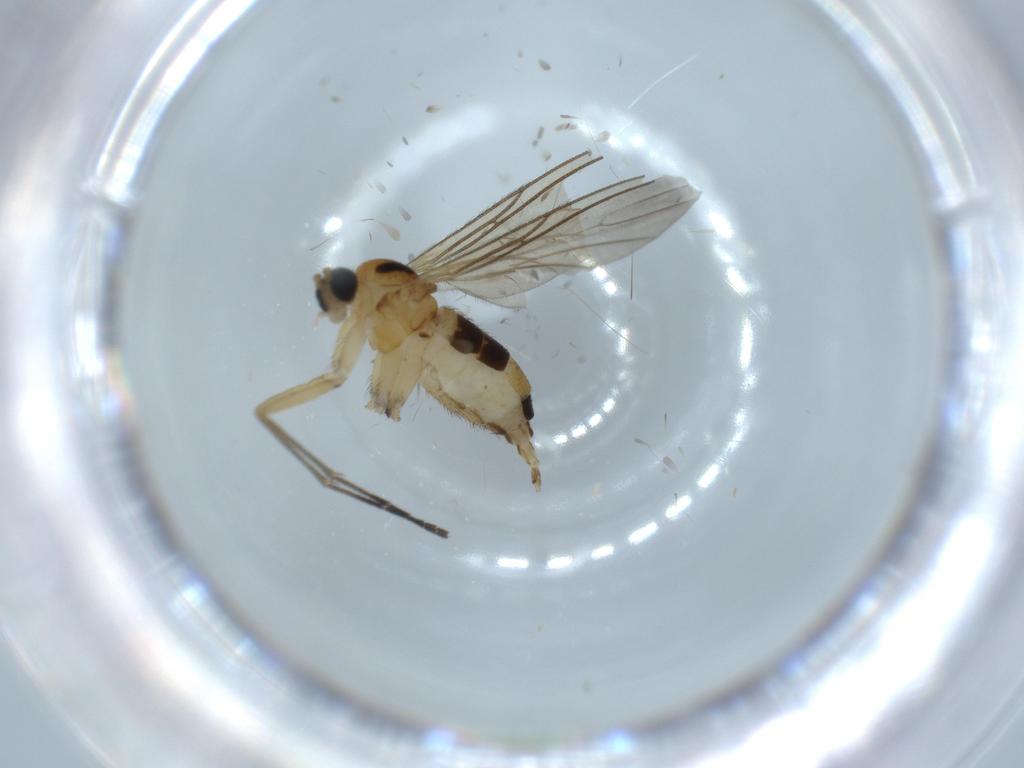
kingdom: Animalia
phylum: Arthropoda
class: Insecta
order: Diptera
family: Sciaridae
